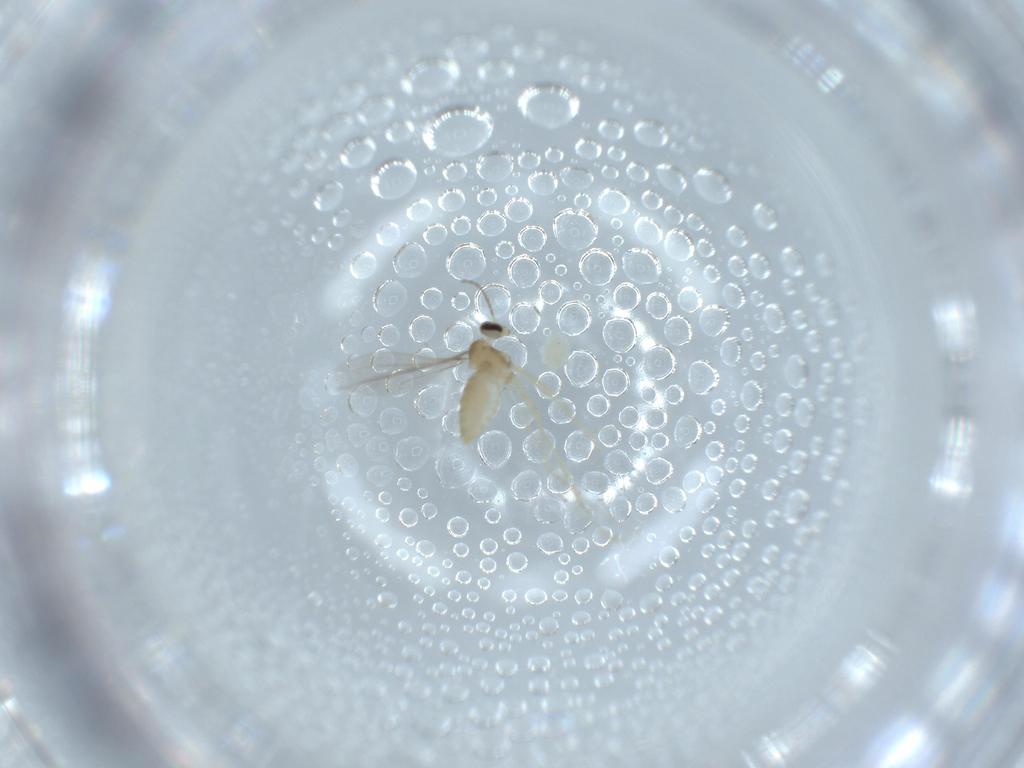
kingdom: Animalia
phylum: Arthropoda
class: Insecta
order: Diptera
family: Cecidomyiidae
